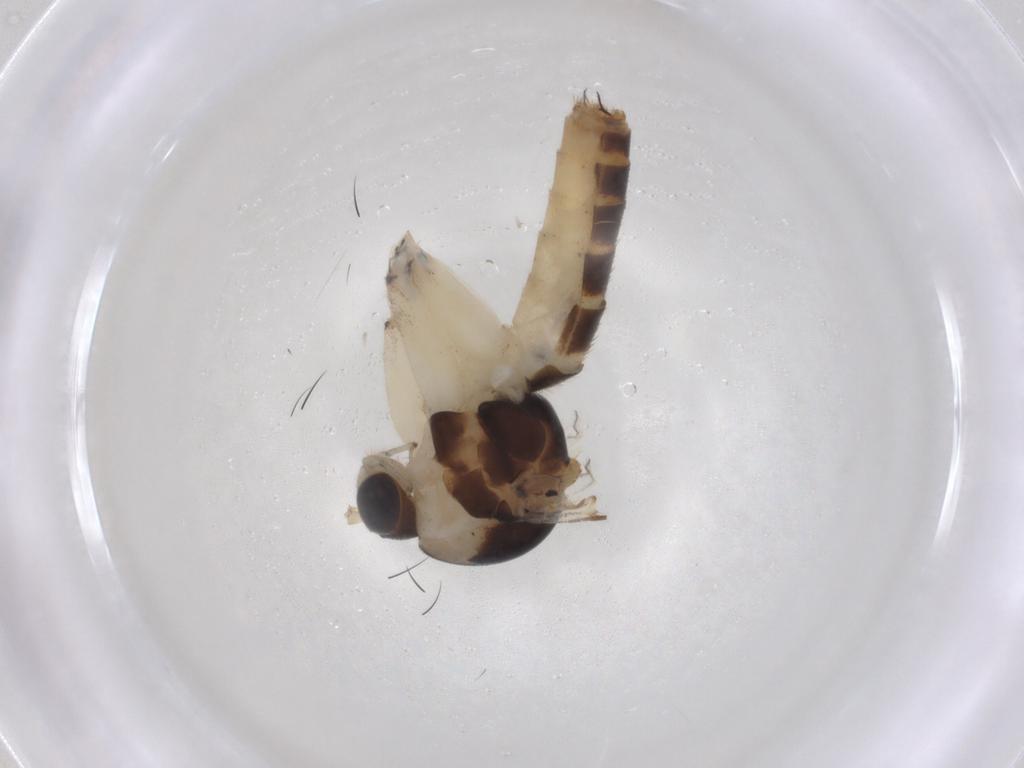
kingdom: Animalia
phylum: Arthropoda
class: Insecta
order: Diptera
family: Mycetophilidae
